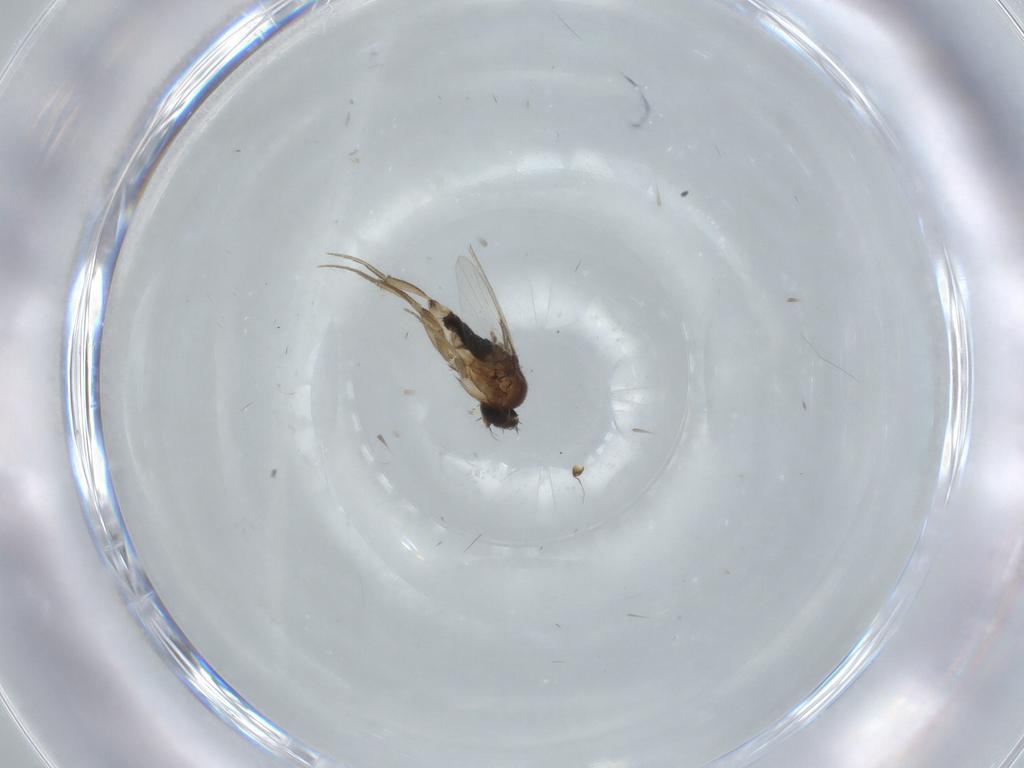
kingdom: Animalia
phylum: Arthropoda
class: Insecta
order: Diptera
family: Phoridae
